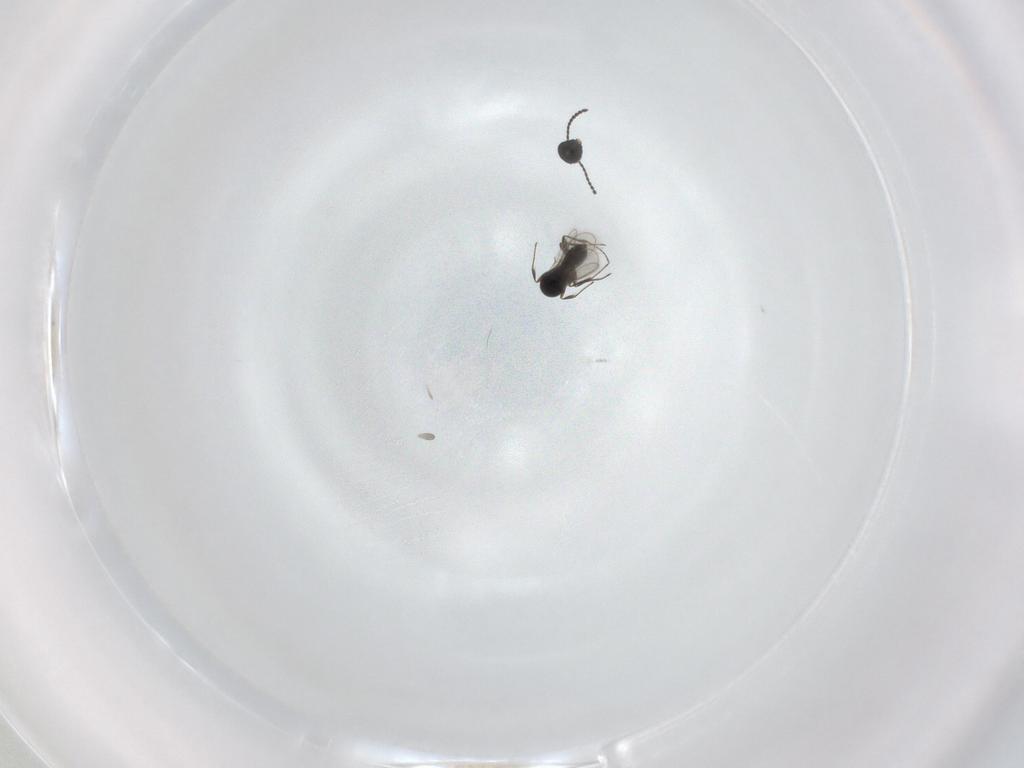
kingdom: Animalia
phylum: Arthropoda
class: Insecta
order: Hymenoptera
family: Scelionidae
